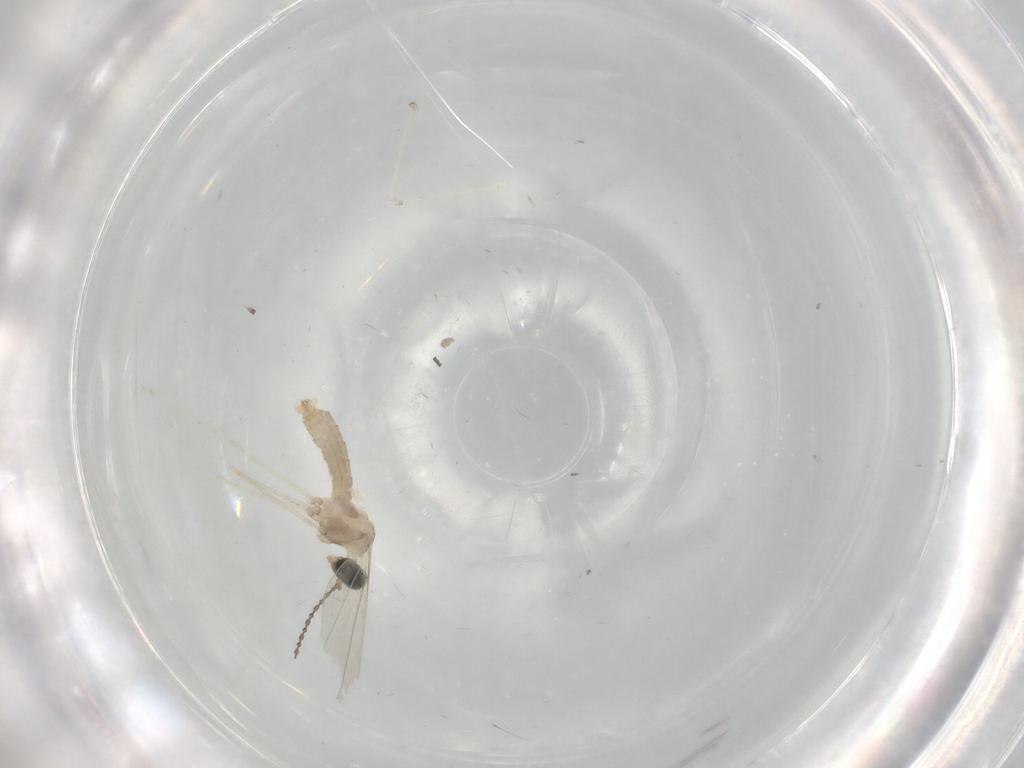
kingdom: Animalia
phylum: Arthropoda
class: Insecta
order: Diptera
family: Cecidomyiidae
